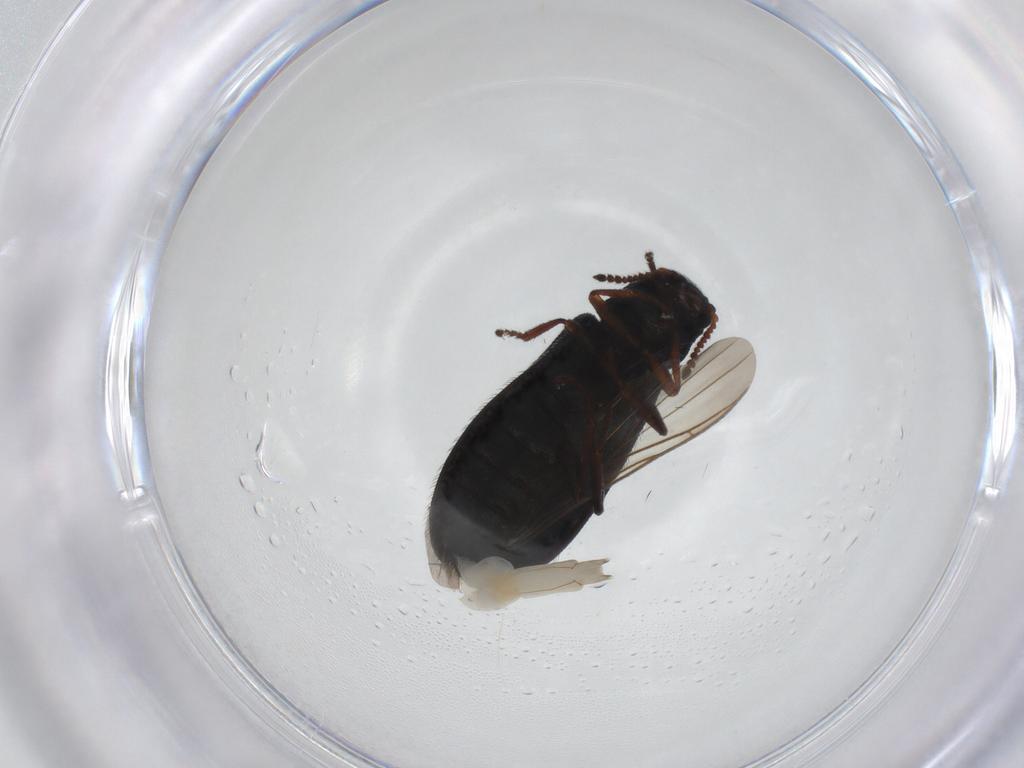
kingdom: Animalia
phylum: Arthropoda
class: Insecta
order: Coleoptera
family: Melyridae
